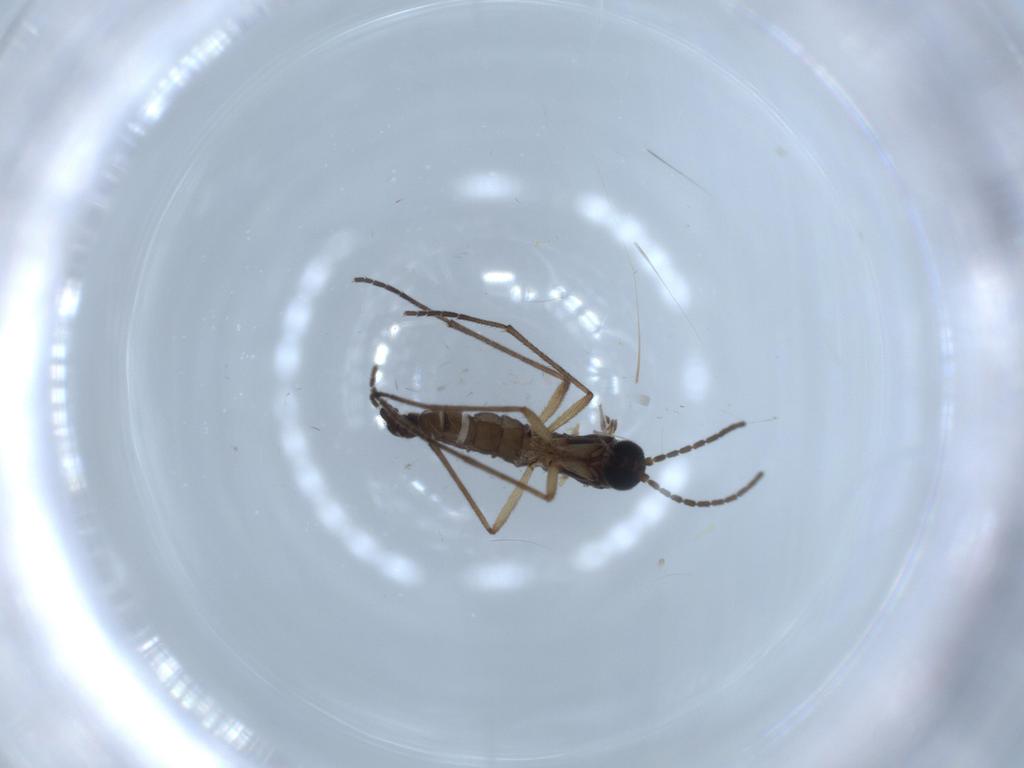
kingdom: Animalia
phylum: Arthropoda
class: Insecta
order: Diptera
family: Sciaridae
